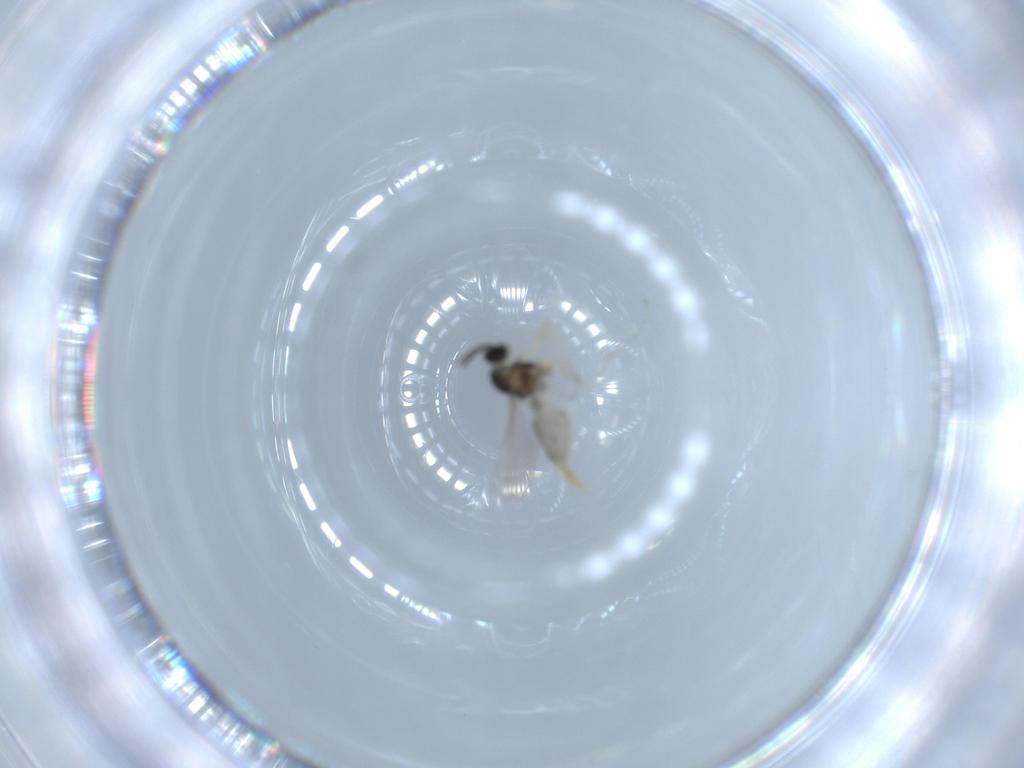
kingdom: Animalia
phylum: Arthropoda
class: Insecta
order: Diptera
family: Cecidomyiidae
